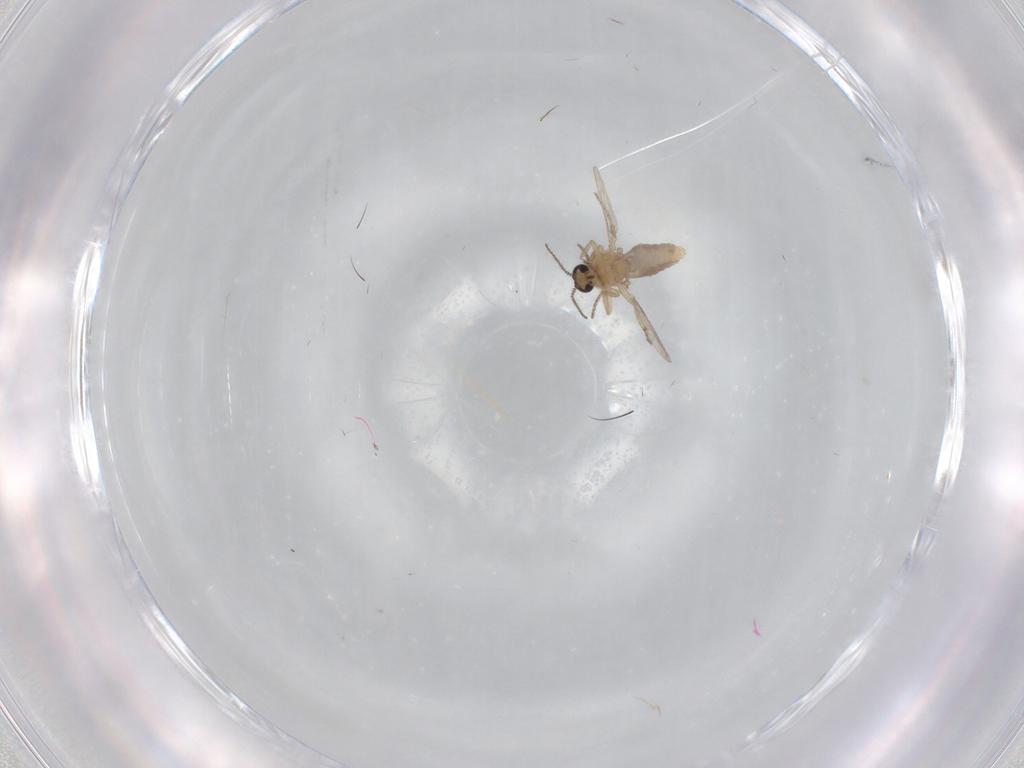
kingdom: Animalia
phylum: Arthropoda
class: Insecta
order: Diptera
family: Ceratopogonidae
